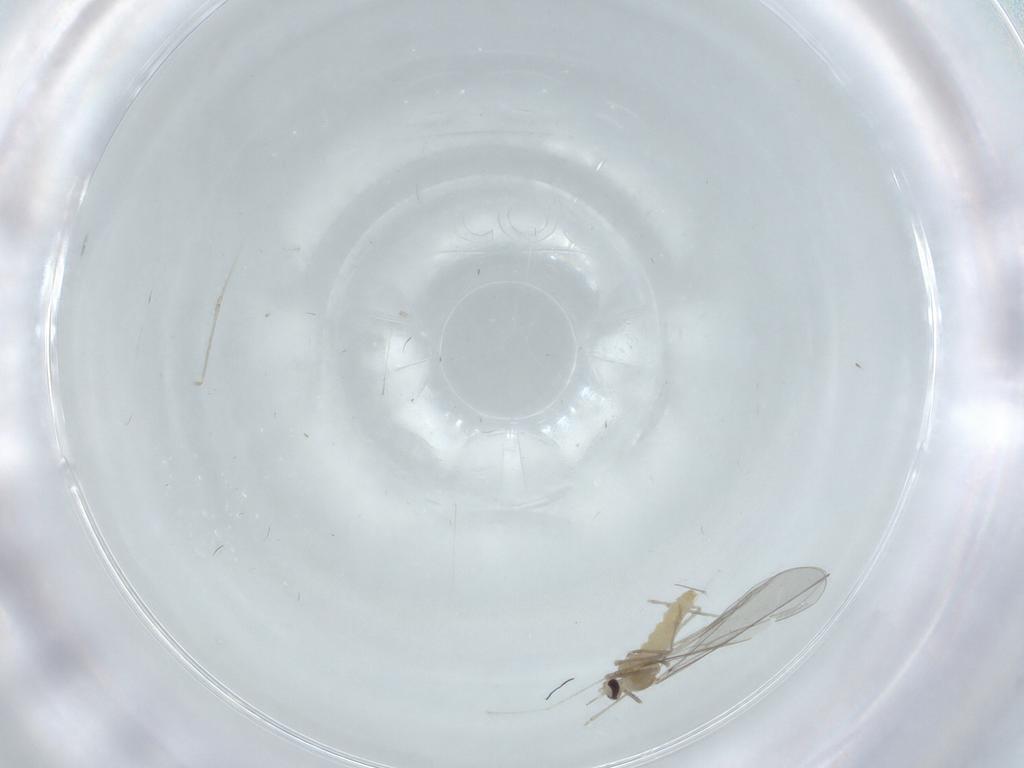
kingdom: Animalia
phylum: Arthropoda
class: Insecta
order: Diptera
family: Cecidomyiidae
